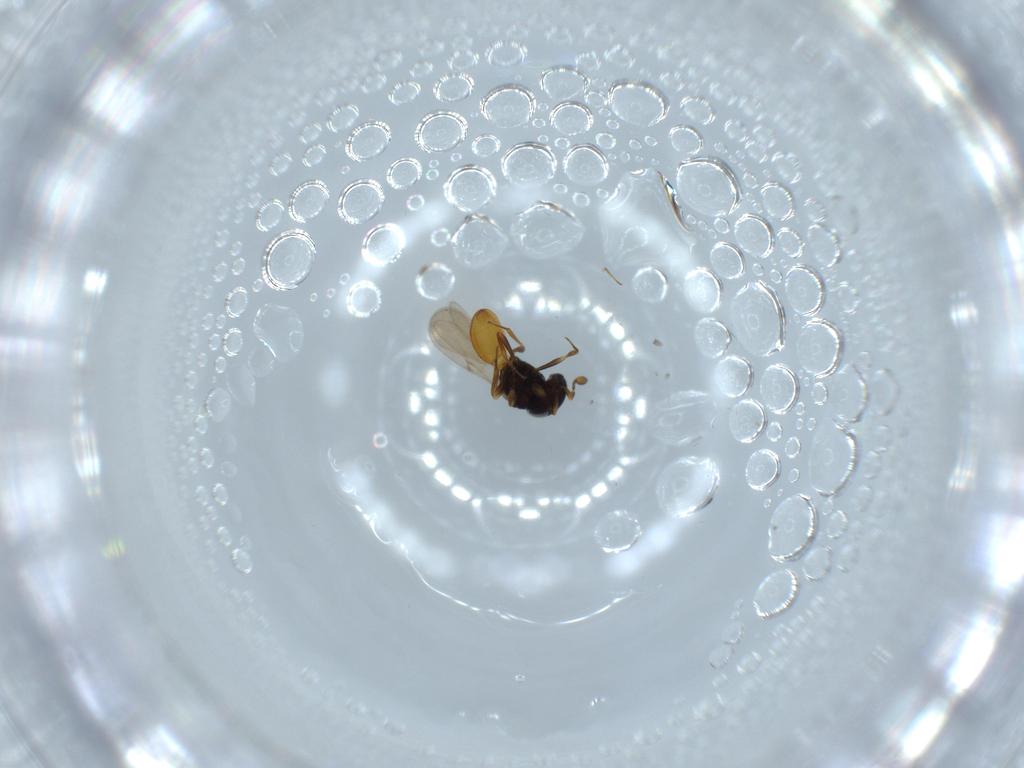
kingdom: Animalia
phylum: Arthropoda
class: Insecta
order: Hymenoptera
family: Scelionidae
